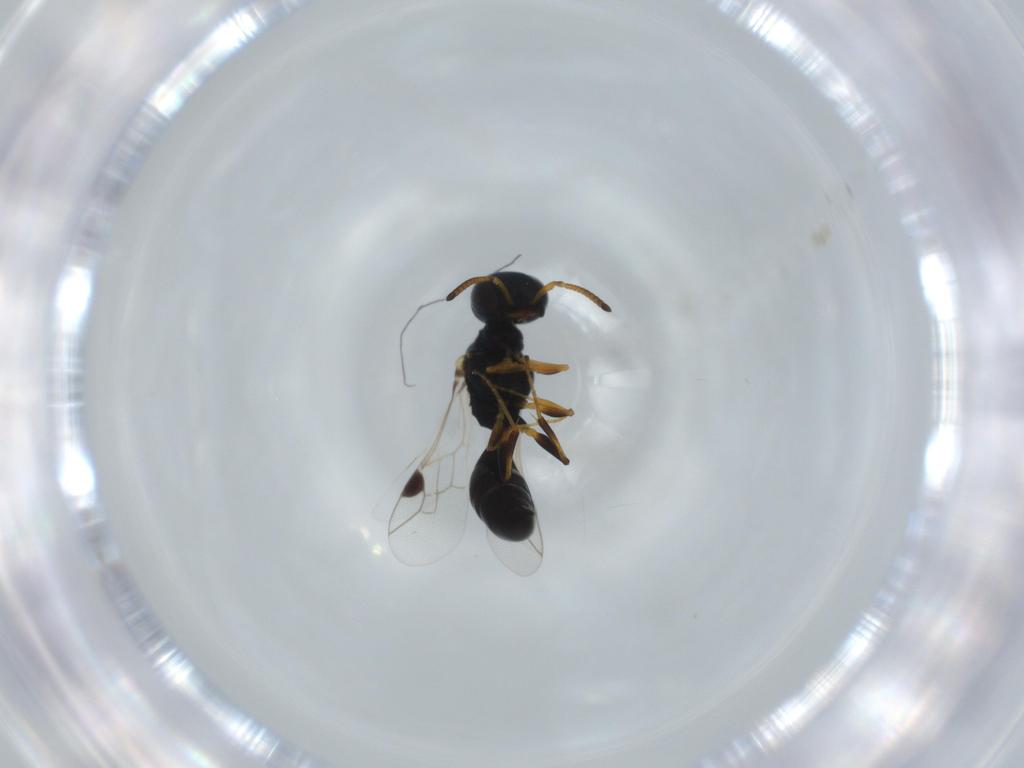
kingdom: Animalia
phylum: Arthropoda
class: Insecta
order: Hymenoptera
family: Pemphredonidae
